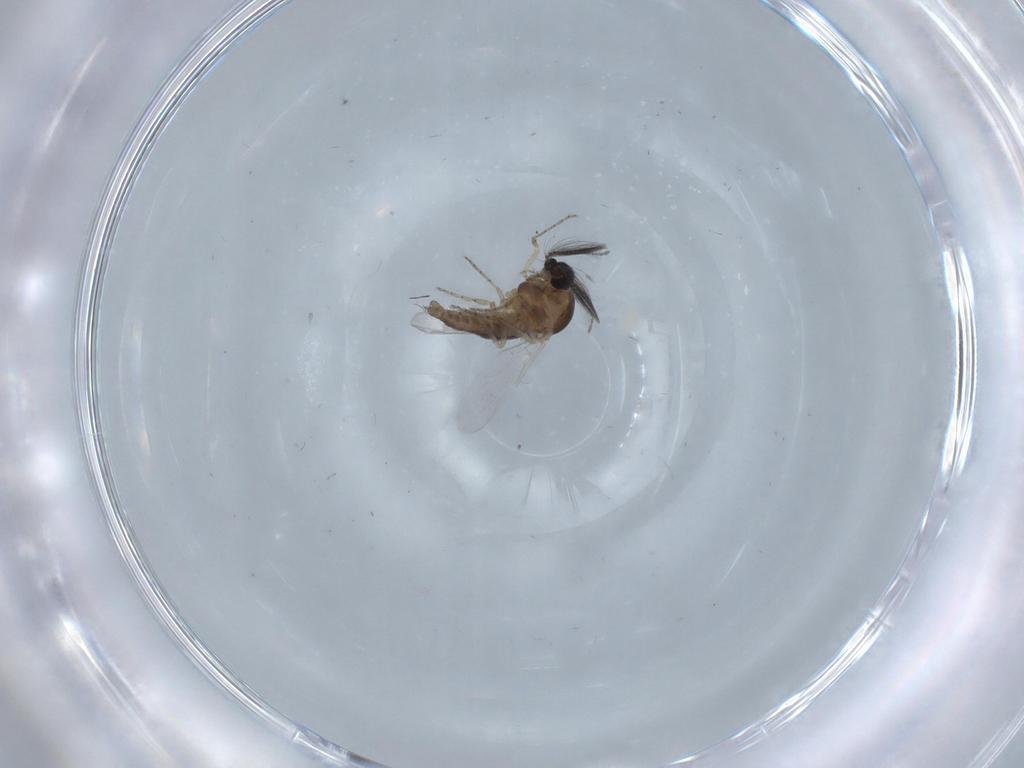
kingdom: Animalia
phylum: Arthropoda
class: Insecta
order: Diptera
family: Ceratopogonidae
